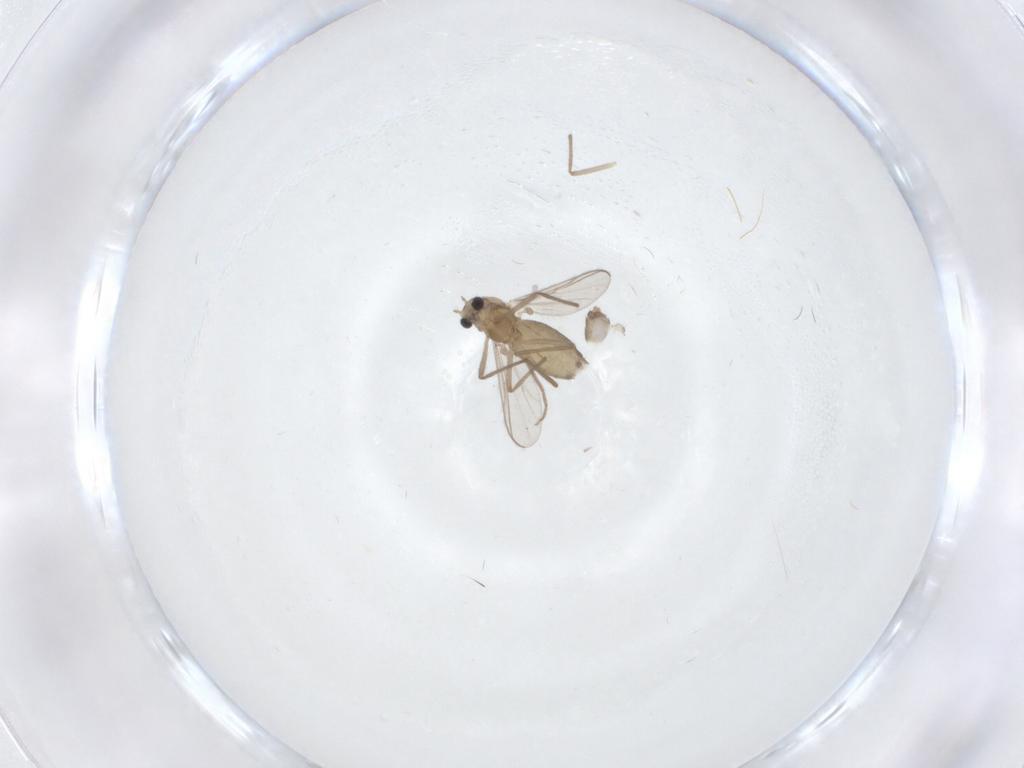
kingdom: Animalia
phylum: Arthropoda
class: Insecta
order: Diptera
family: Chironomidae
